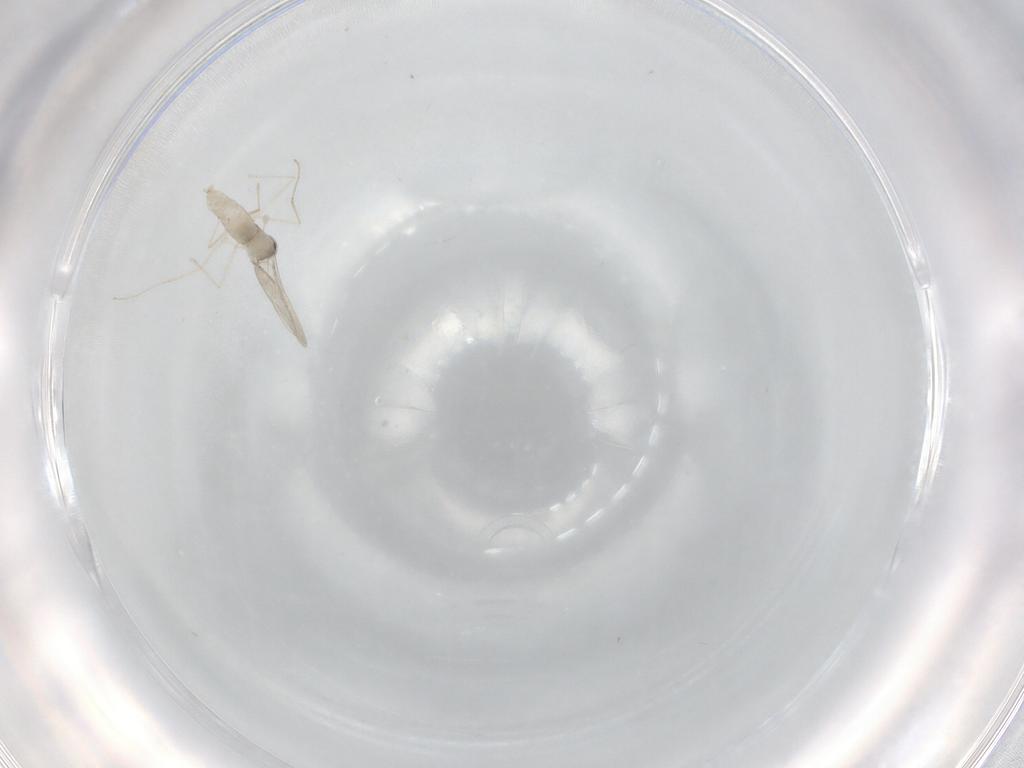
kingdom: Animalia
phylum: Arthropoda
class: Insecta
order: Diptera
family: Cecidomyiidae
